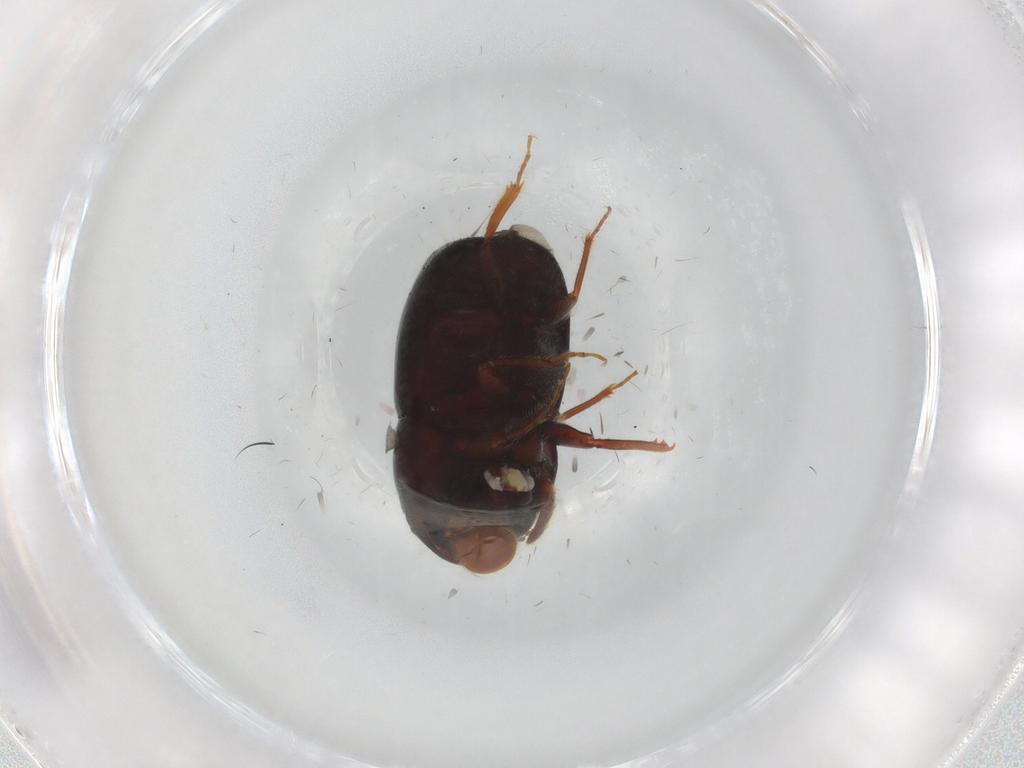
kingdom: Animalia
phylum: Arthropoda
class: Insecta
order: Coleoptera
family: Curculionidae
